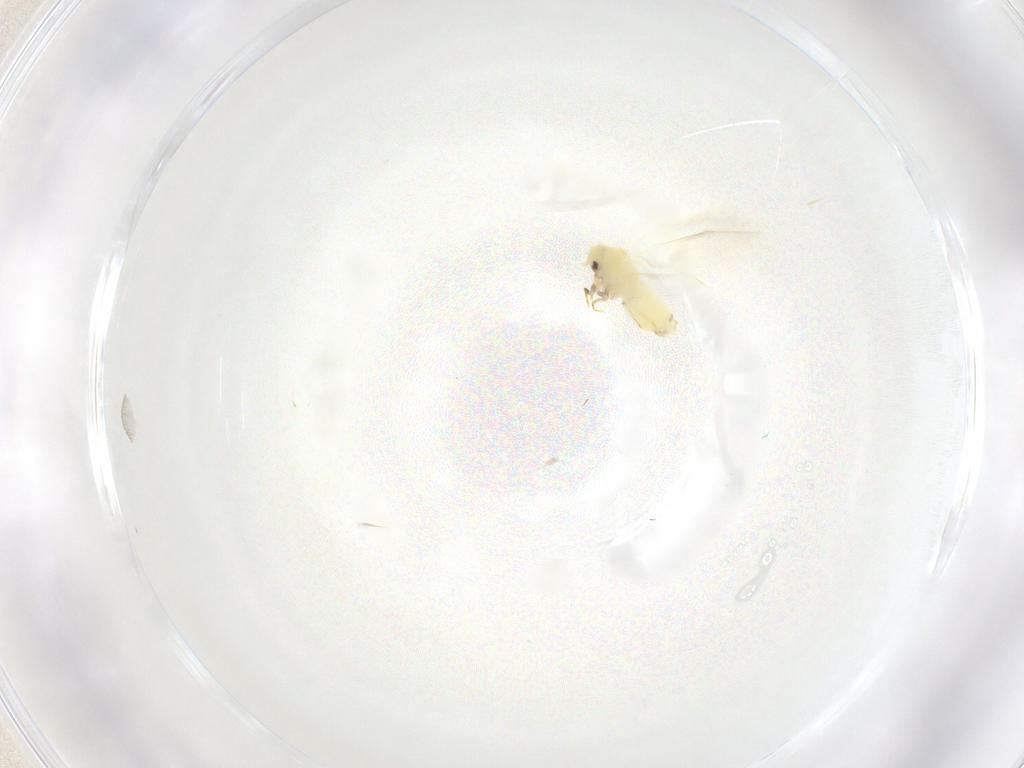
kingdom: Animalia
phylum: Arthropoda
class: Insecta
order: Hemiptera
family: Aleyrodidae
